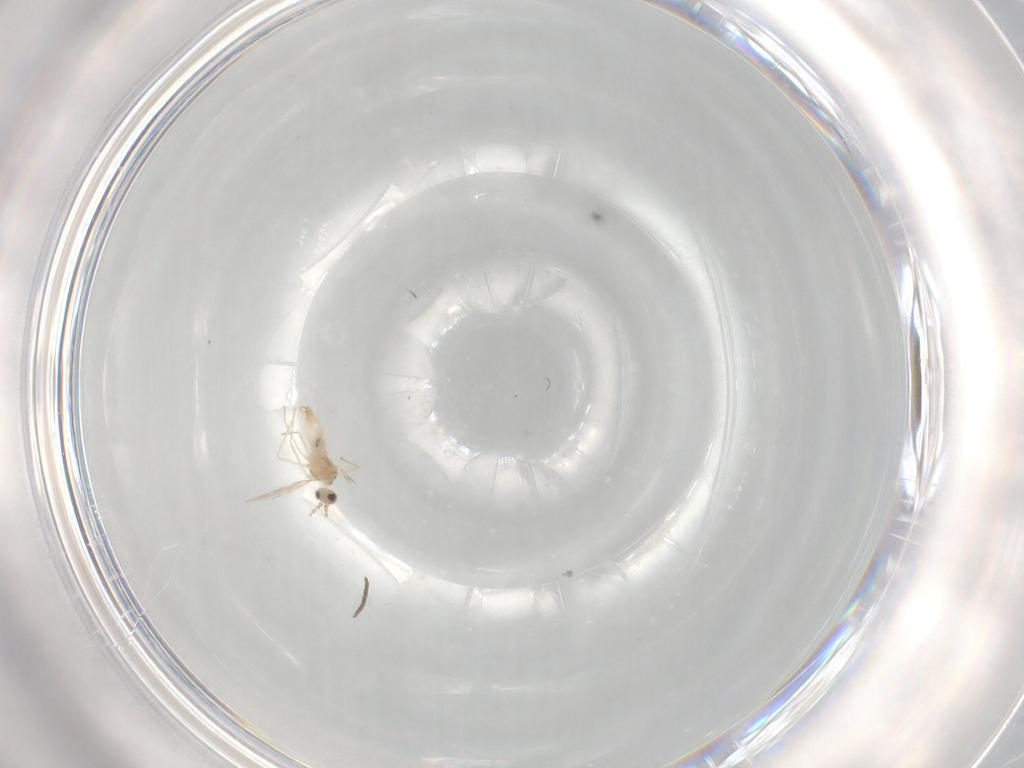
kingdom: Animalia
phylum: Arthropoda
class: Insecta
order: Diptera
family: Cecidomyiidae
